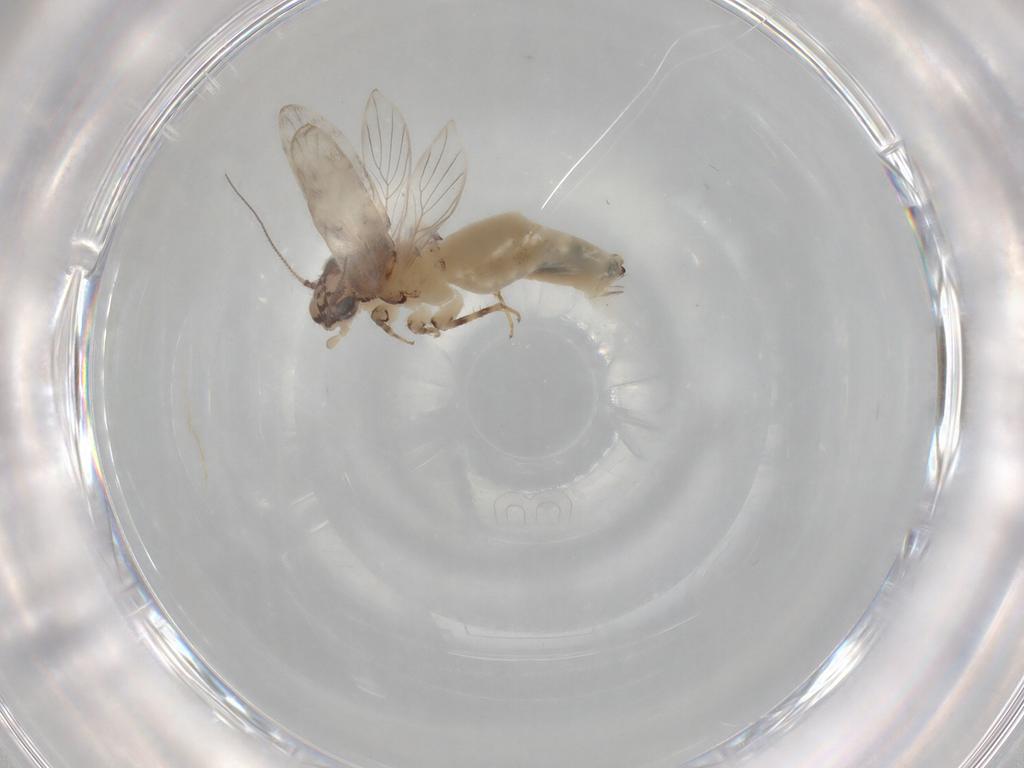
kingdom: Animalia
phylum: Arthropoda
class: Insecta
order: Psocodea
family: Lepidopsocidae
